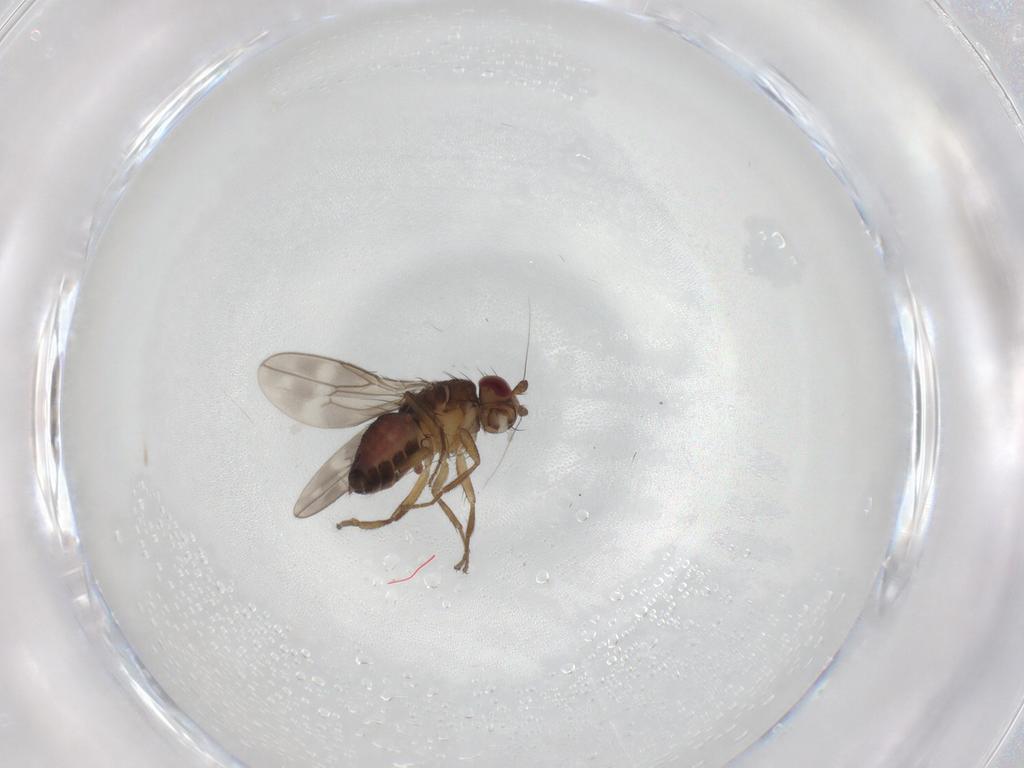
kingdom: Animalia
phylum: Arthropoda
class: Insecta
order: Diptera
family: Sphaeroceridae
